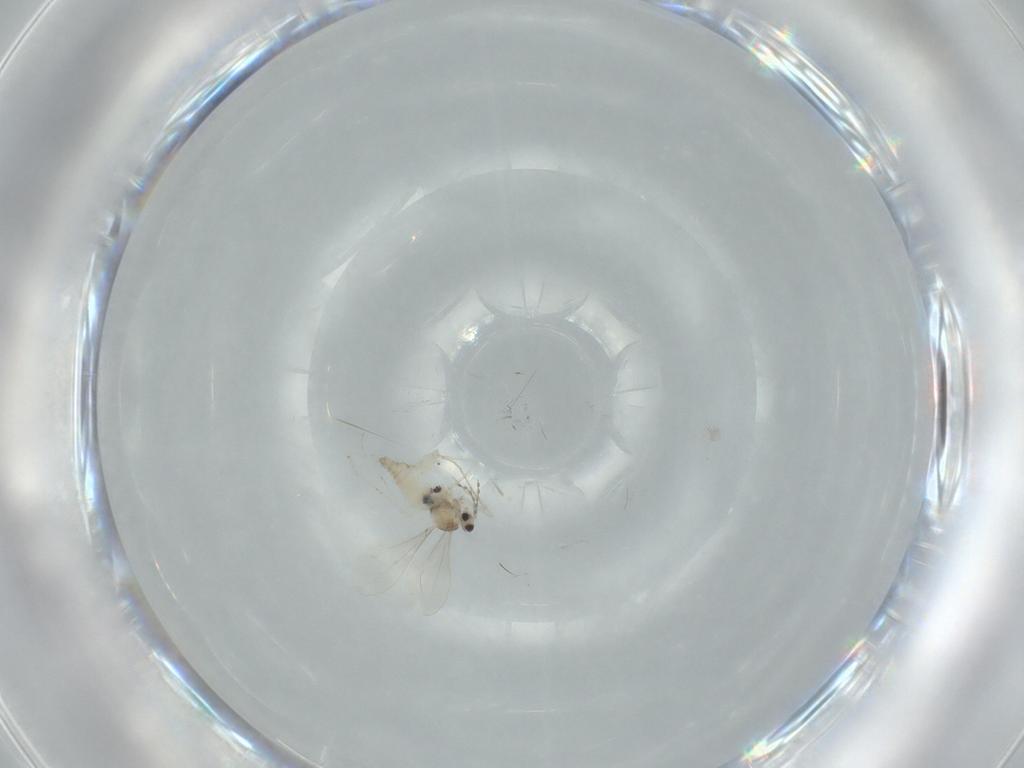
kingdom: Animalia
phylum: Arthropoda
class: Insecta
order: Diptera
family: Cecidomyiidae
